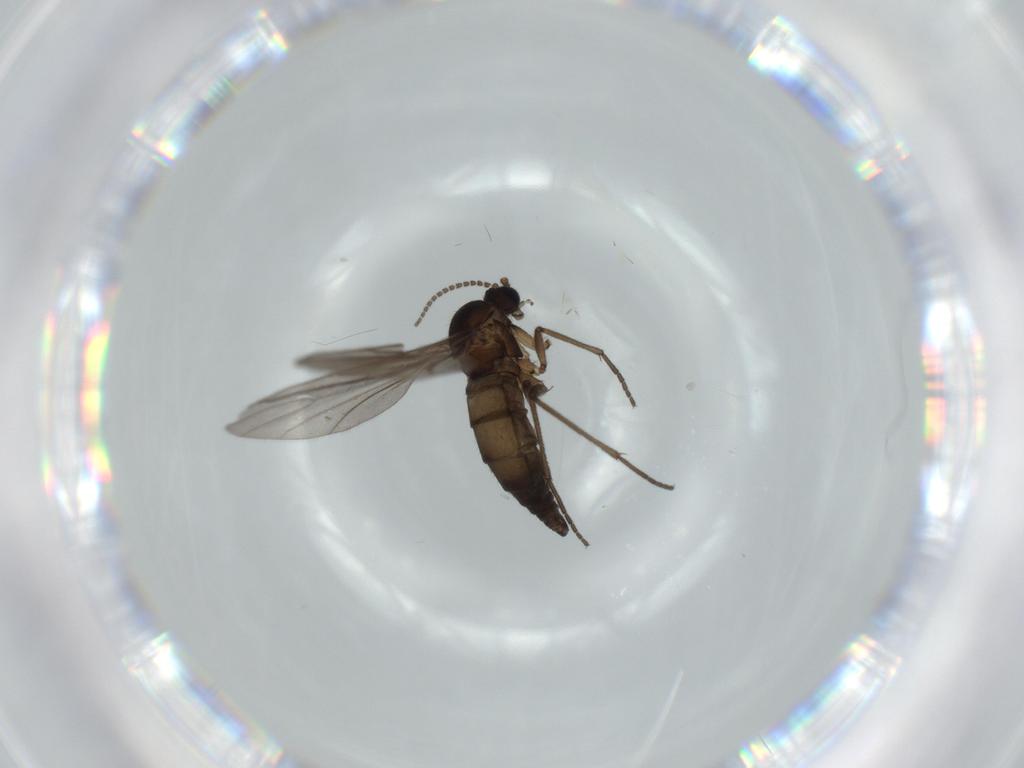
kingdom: Animalia
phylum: Arthropoda
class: Insecta
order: Diptera
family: Sciaridae
